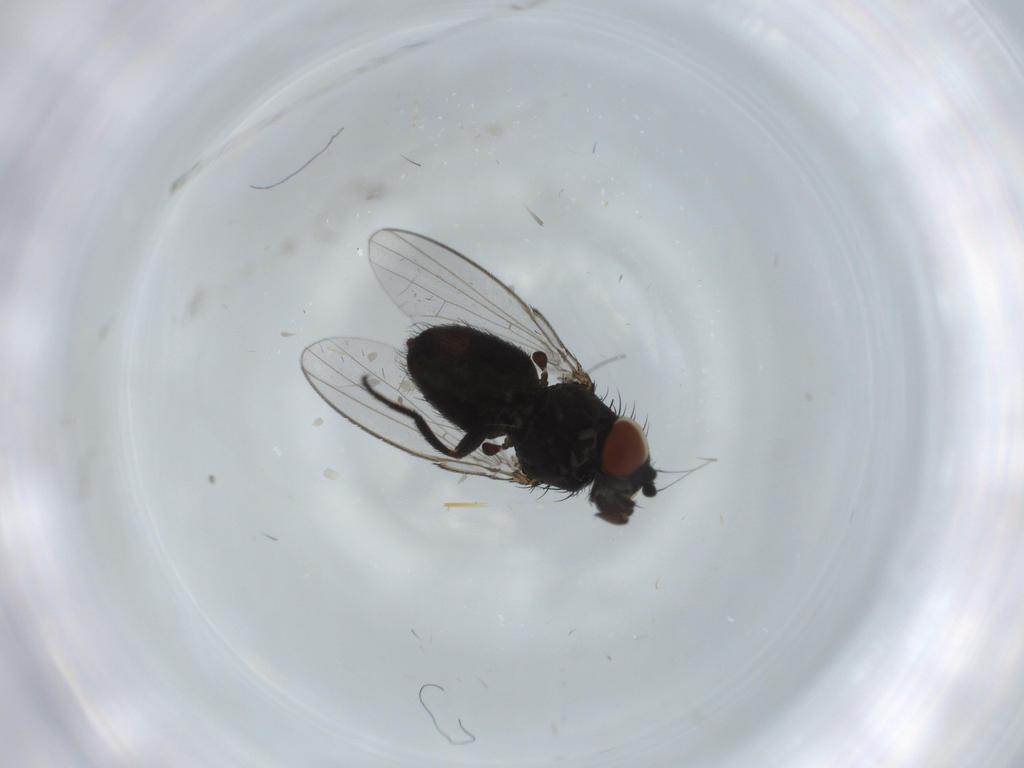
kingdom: Animalia
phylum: Arthropoda
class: Insecta
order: Diptera
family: Milichiidae
